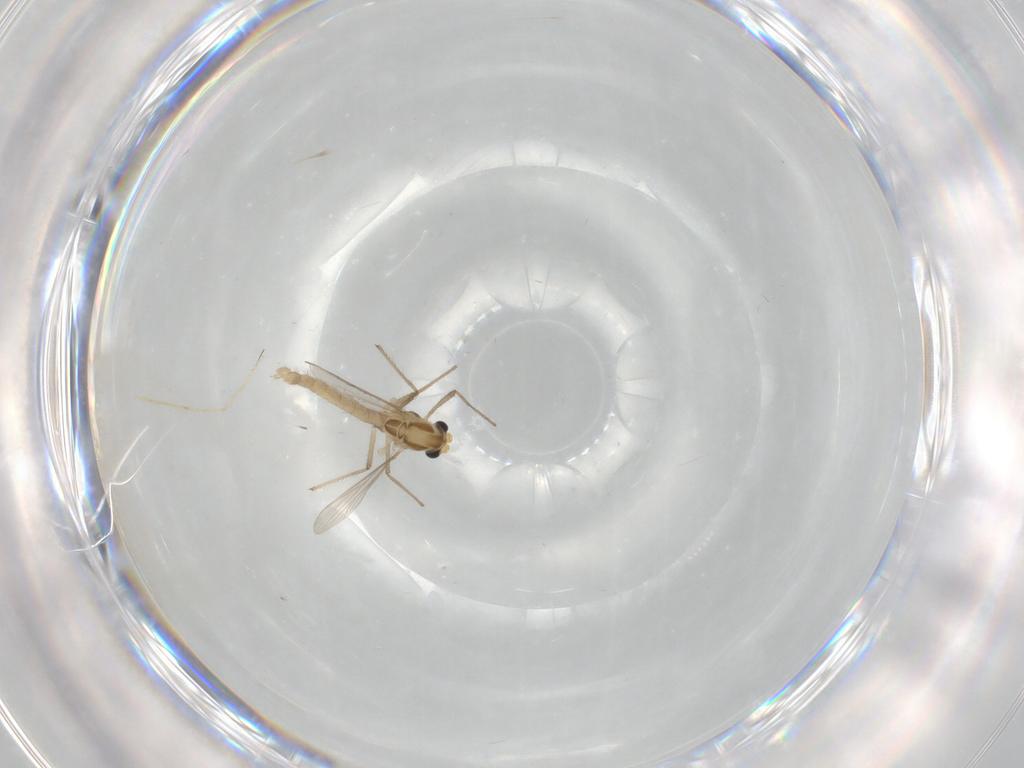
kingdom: Animalia
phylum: Arthropoda
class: Insecta
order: Diptera
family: Chironomidae
